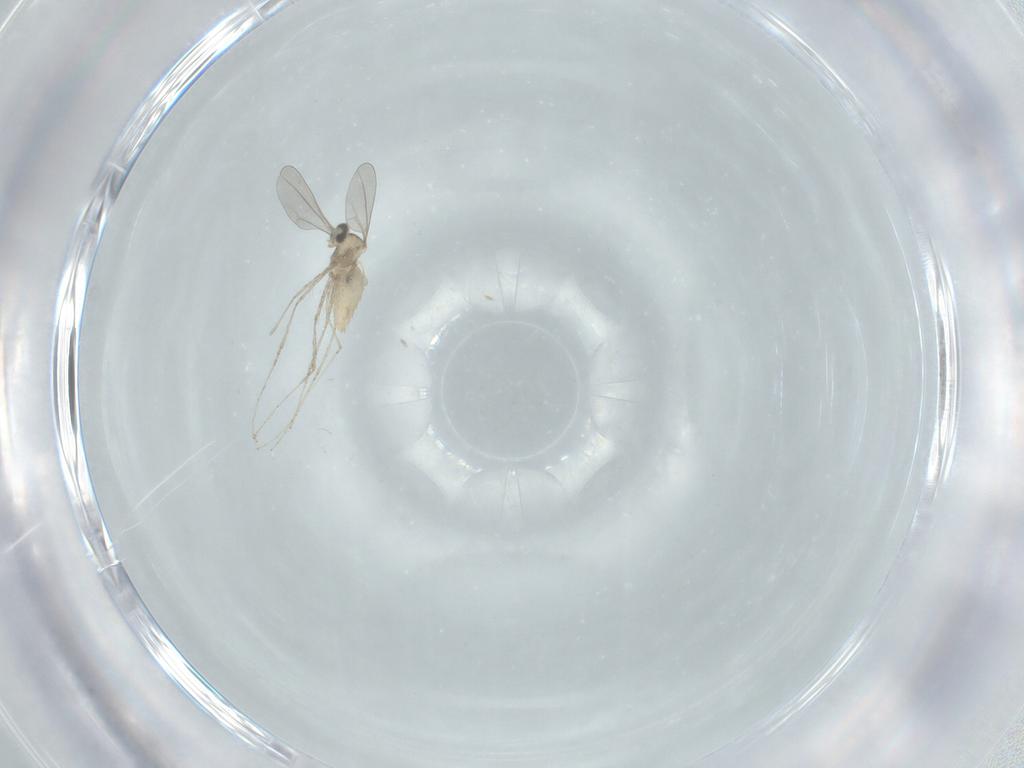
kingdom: Animalia
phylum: Arthropoda
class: Insecta
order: Diptera
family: Cecidomyiidae
